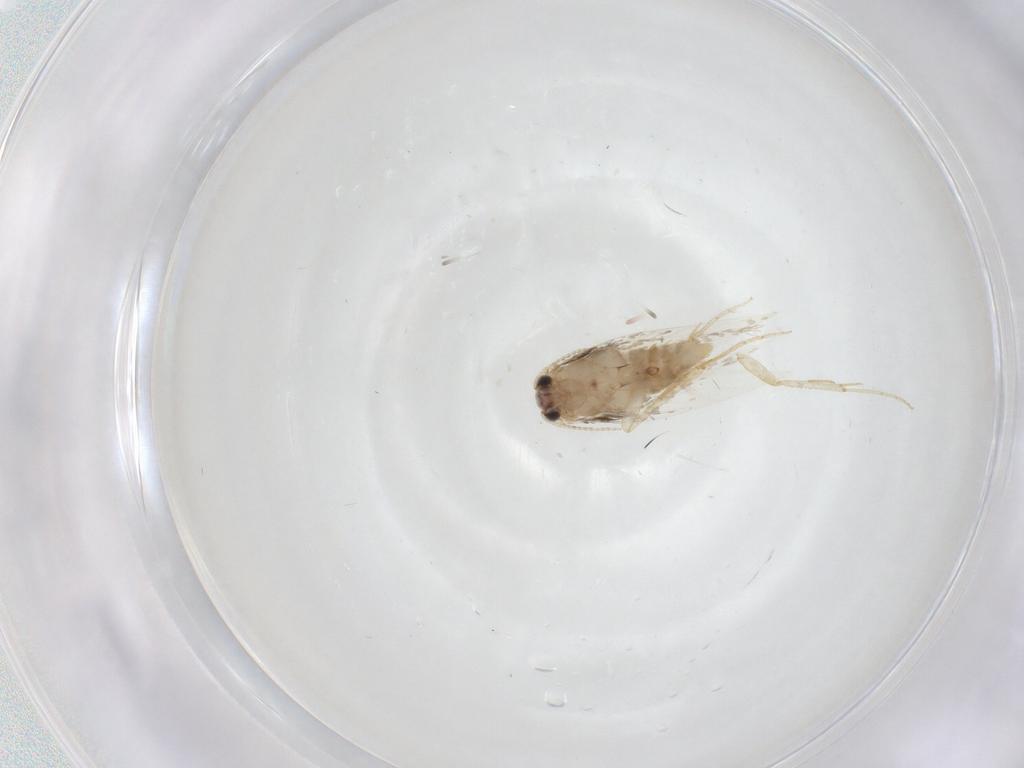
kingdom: Animalia
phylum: Arthropoda
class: Insecta
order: Lepidoptera
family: Nepticulidae
